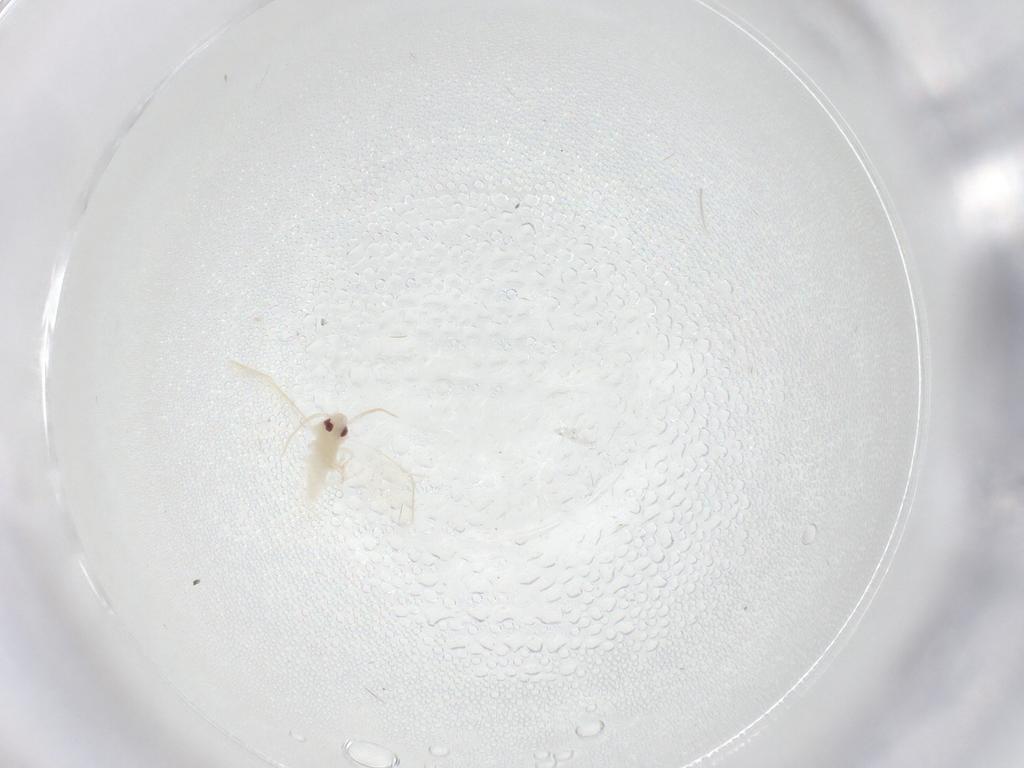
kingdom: Animalia
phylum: Arthropoda
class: Insecta
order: Hemiptera
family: Aleyrodidae
